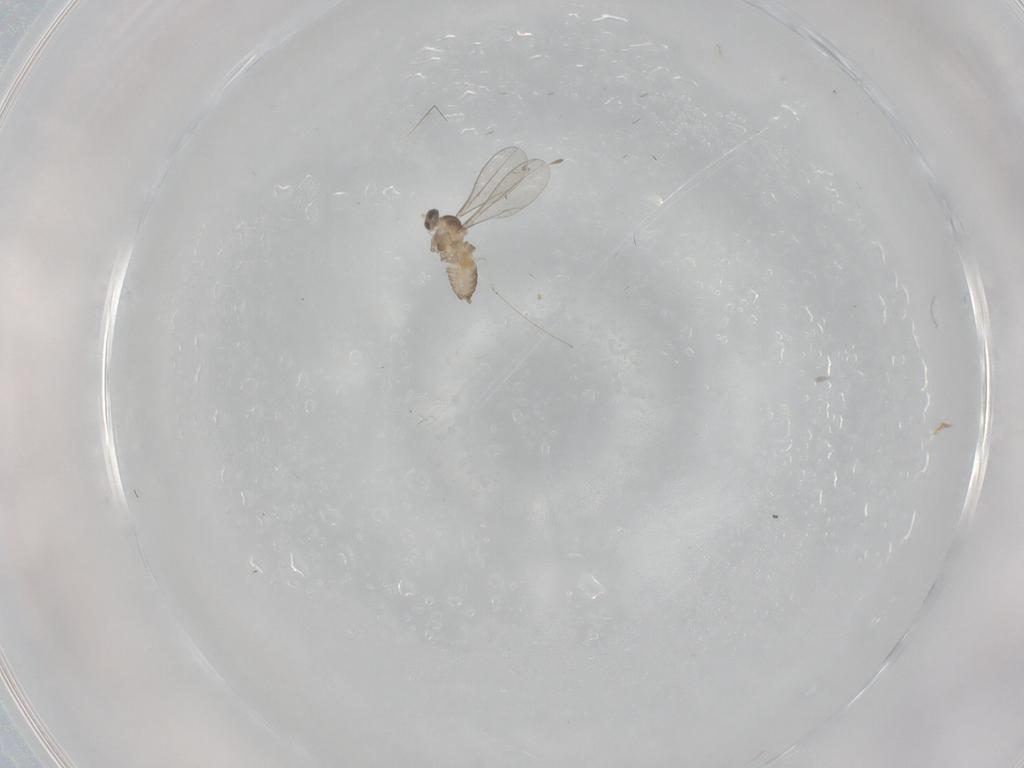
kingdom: Animalia
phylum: Arthropoda
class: Insecta
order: Diptera
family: Cecidomyiidae
